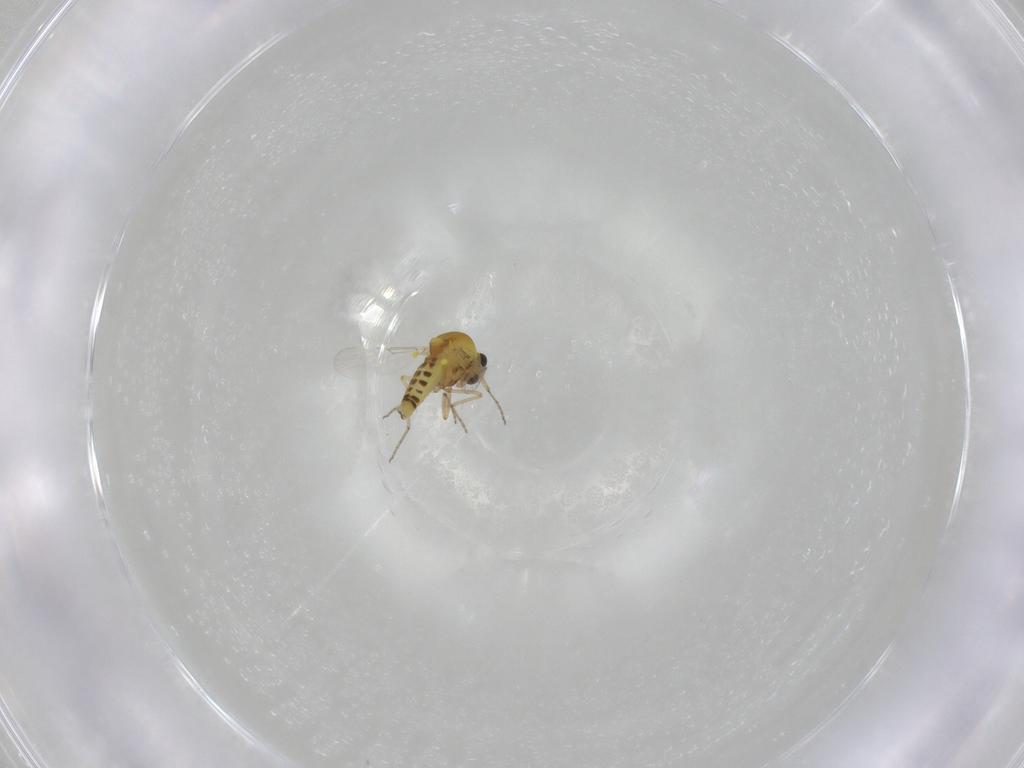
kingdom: Animalia
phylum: Arthropoda
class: Insecta
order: Diptera
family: Ceratopogonidae
